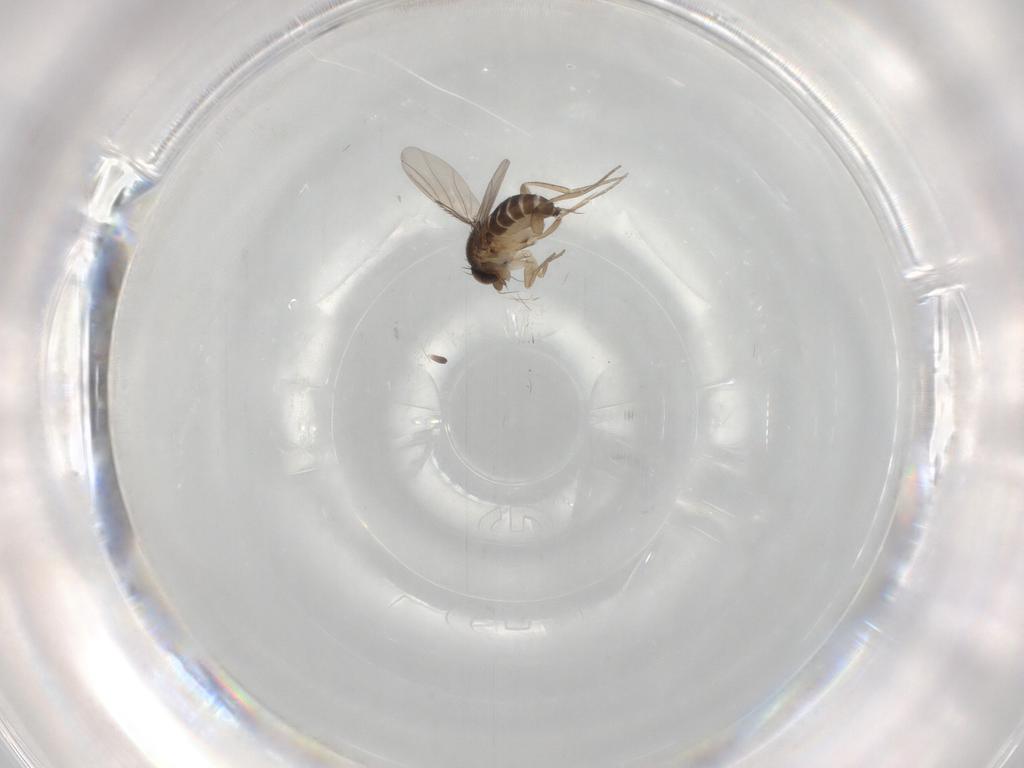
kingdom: Animalia
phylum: Arthropoda
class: Insecta
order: Diptera
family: Phoridae
